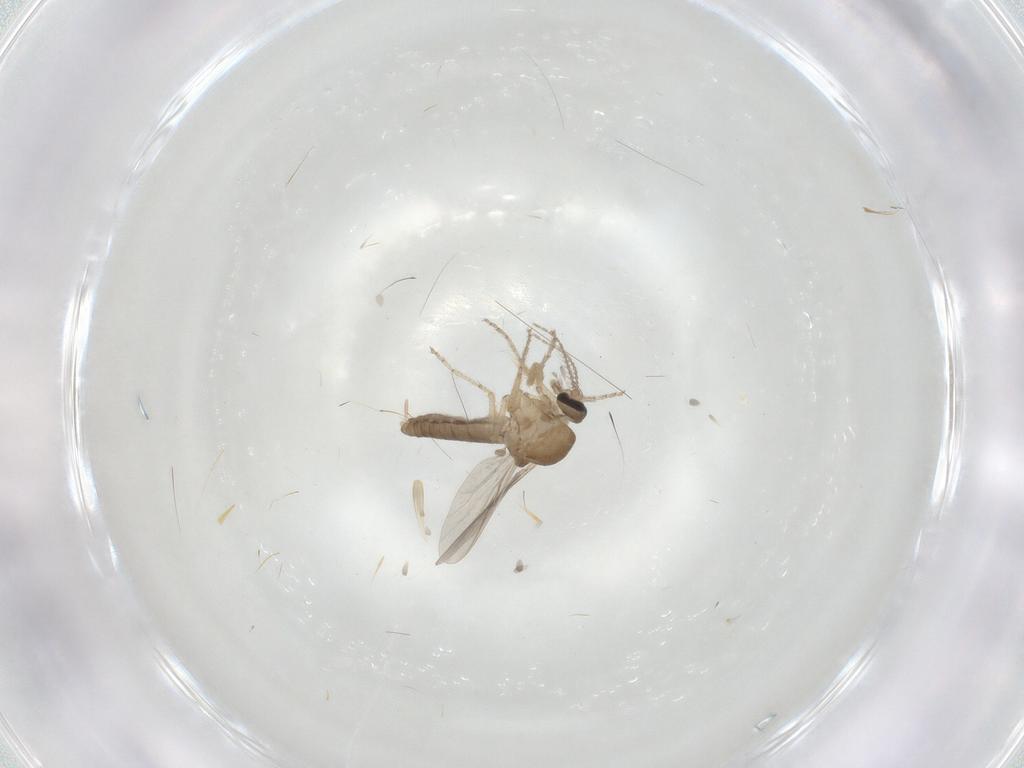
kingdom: Animalia
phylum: Arthropoda
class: Insecta
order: Diptera
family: Ceratopogonidae
